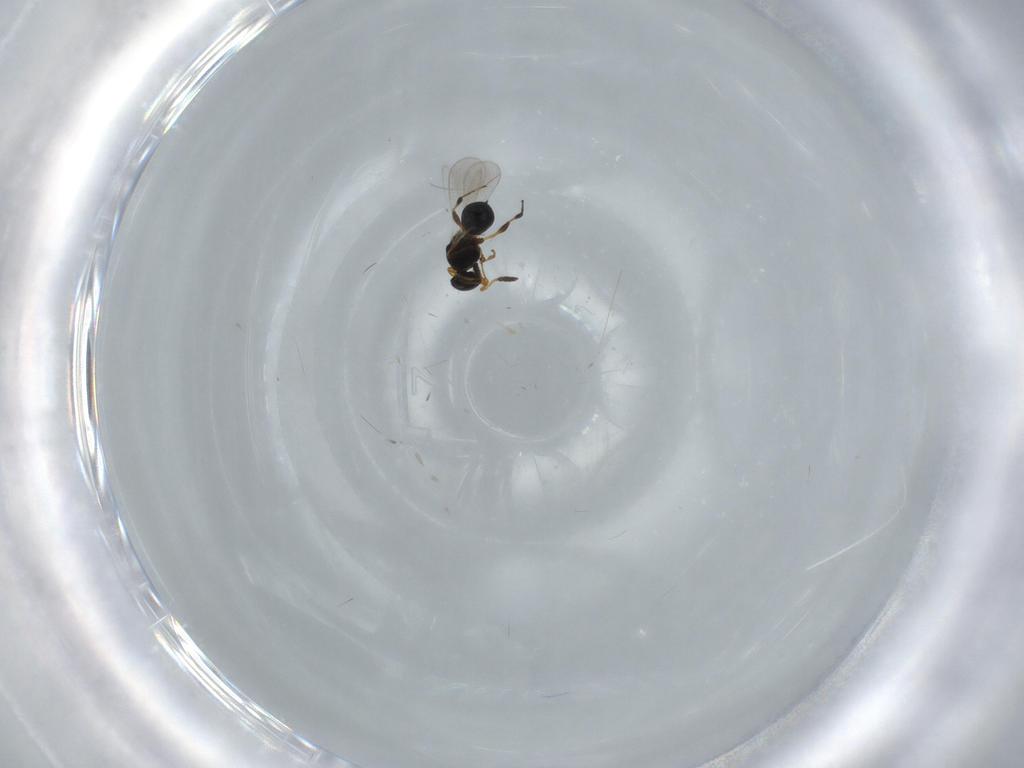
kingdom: Animalia
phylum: Arthropoda
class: Insecta
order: Hymenoptera
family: Platygastridae
